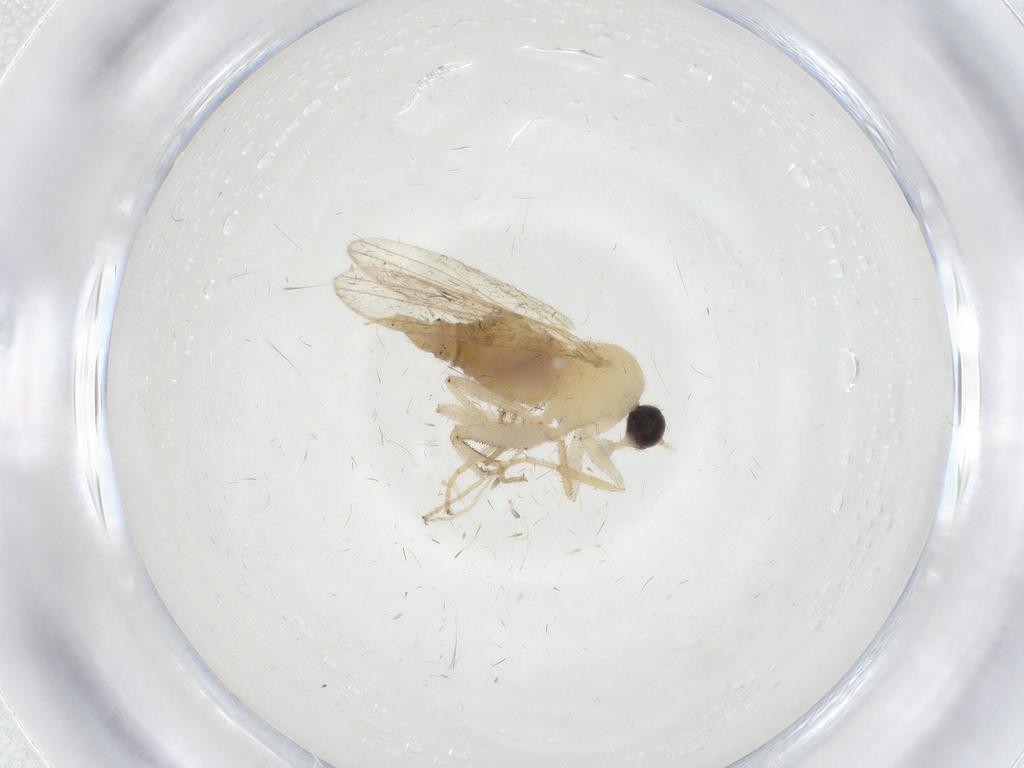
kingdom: Animalia
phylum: Arthropoda
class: Insecta
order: Diptera
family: Hybotidae
